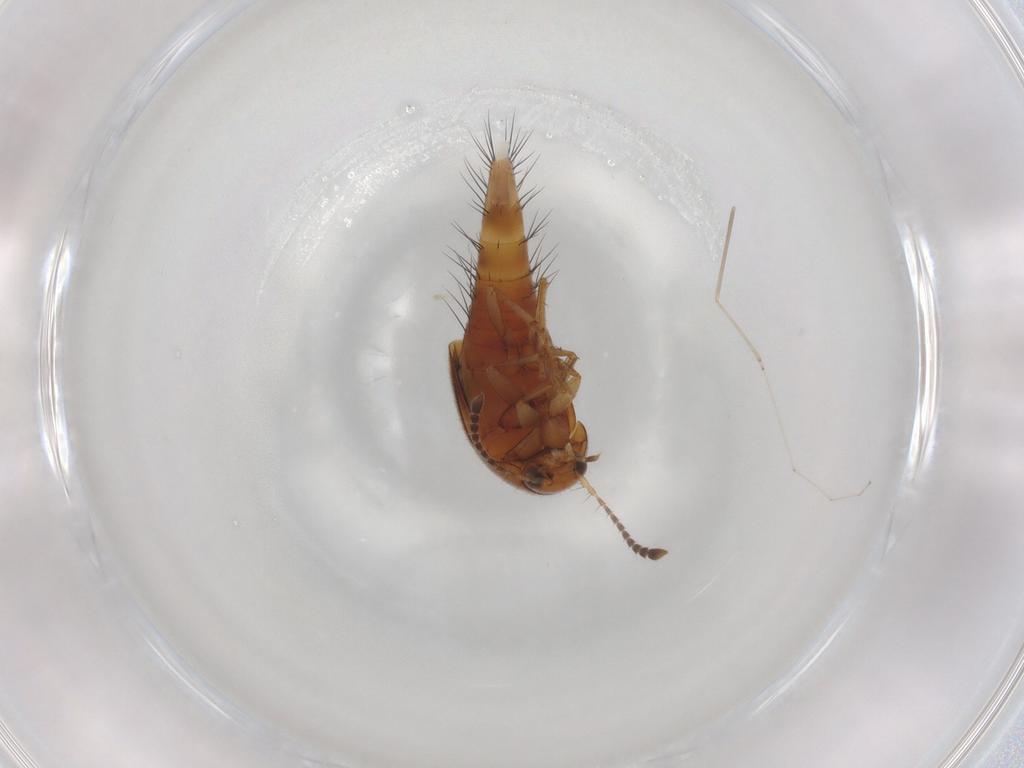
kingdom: Animalia
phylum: Arthropoda
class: Insecta
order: Coleoptera
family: Staphylinidae
